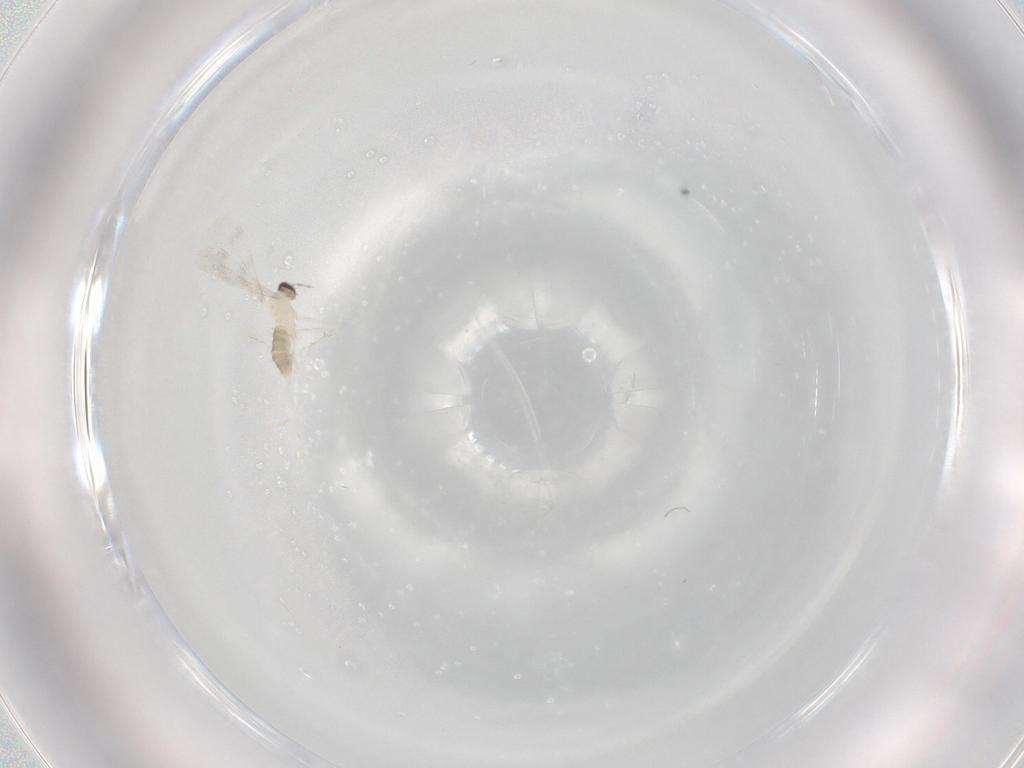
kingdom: Animalia
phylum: Arthropoda
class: Insecta
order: Diptera
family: Cecidomyiidae
